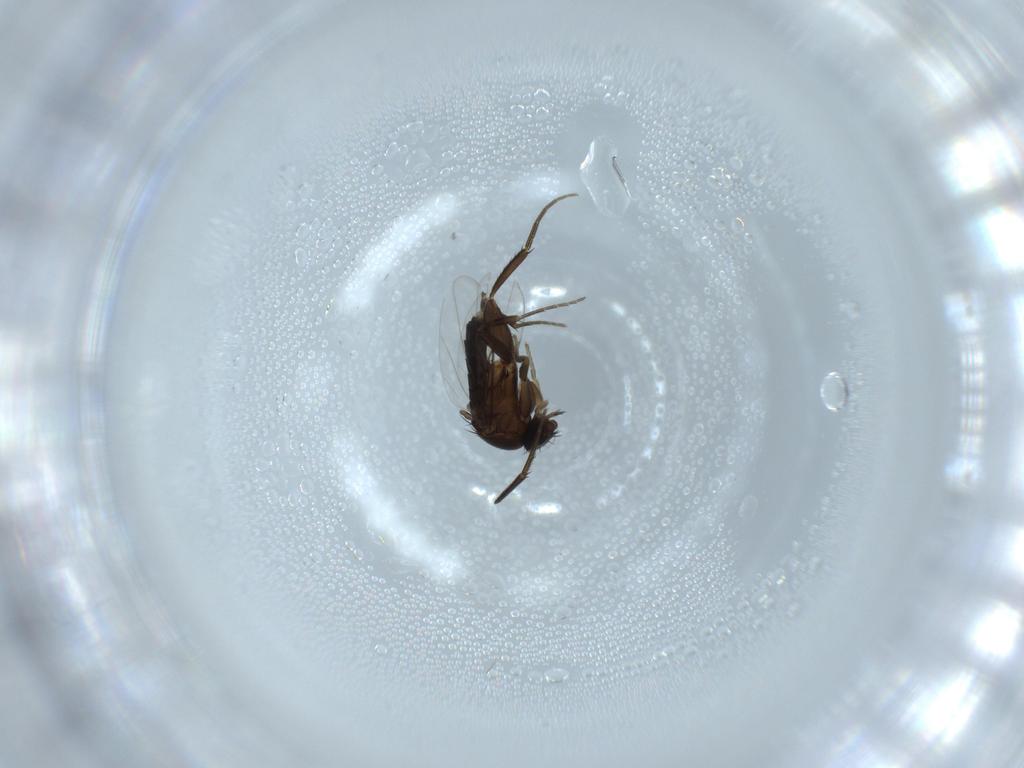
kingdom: Animalia
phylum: Arthropoda
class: Insecta
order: Diptera
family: Phoridae
